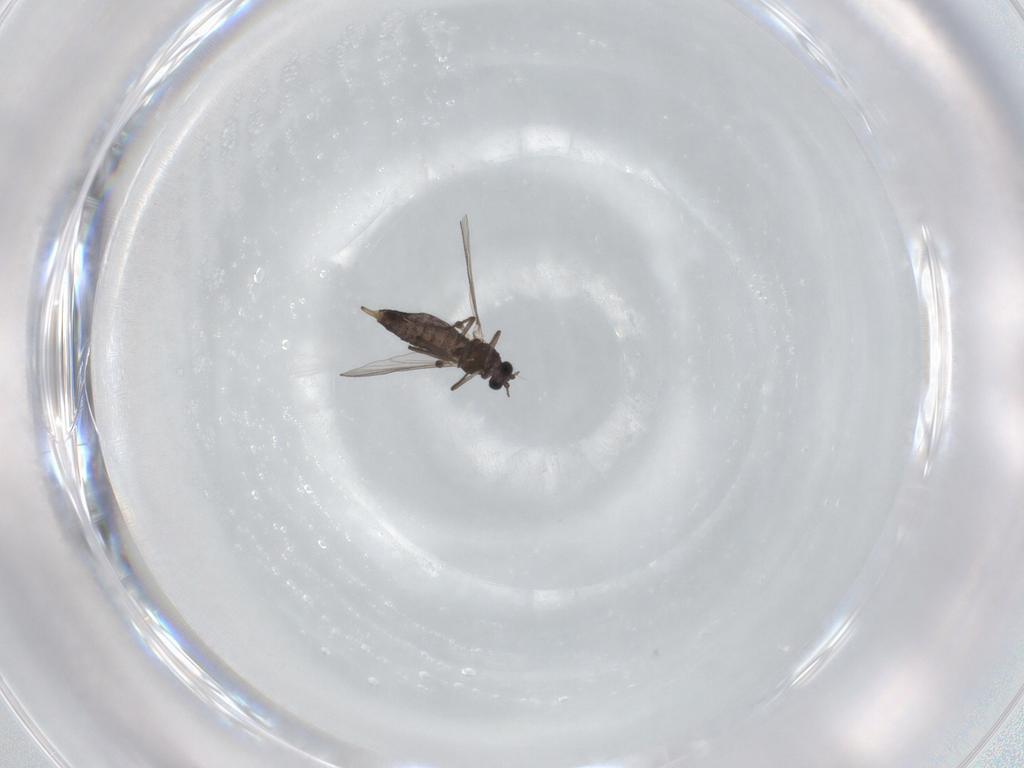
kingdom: Animalia
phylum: Arthropoda
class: Insecta
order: Diptera
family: Chironomidae
